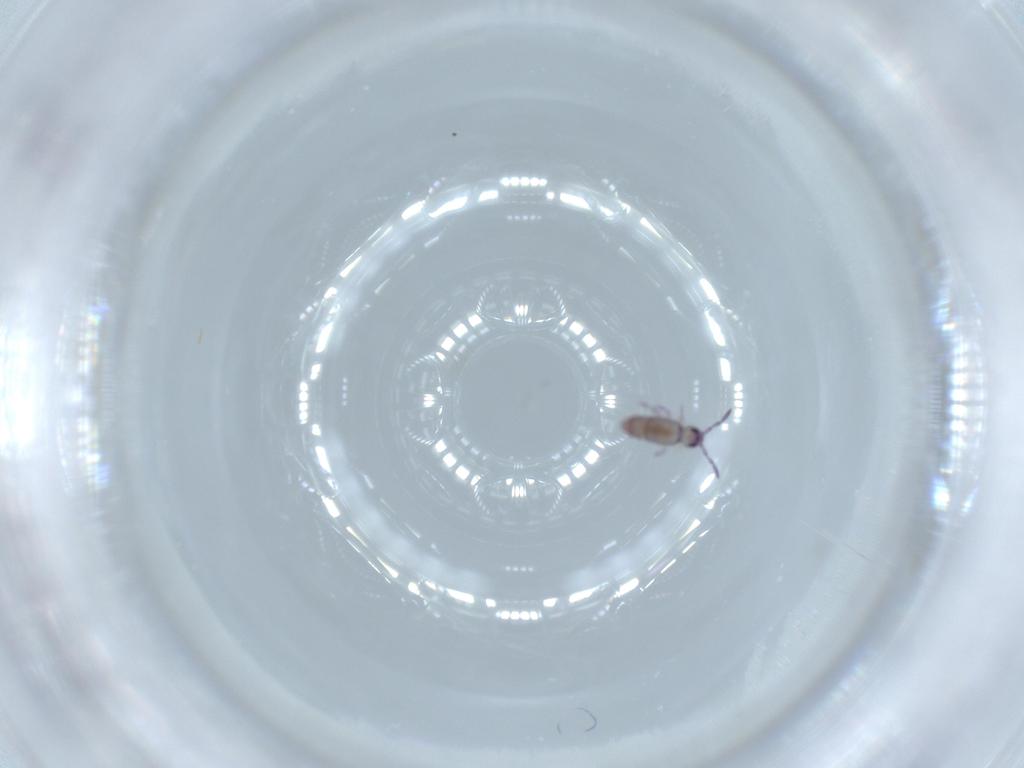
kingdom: Animalia
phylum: Arthropoda
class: Collembola
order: Entomobryomorpha
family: Entomobryidae
